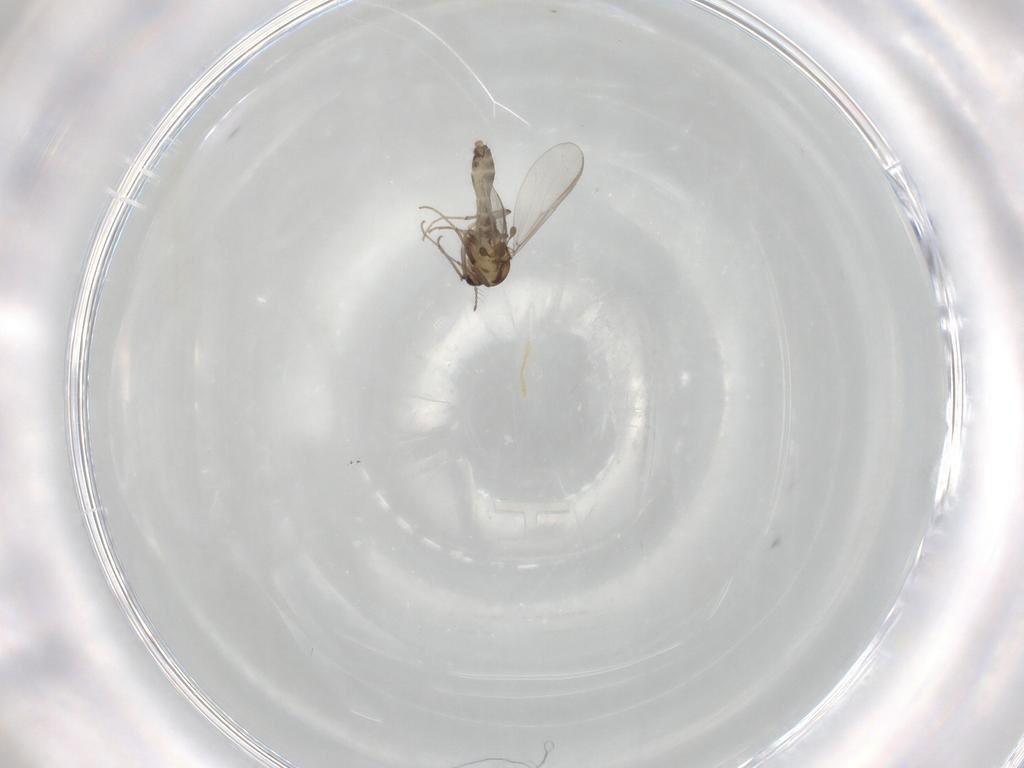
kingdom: Animalia
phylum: Arthropoda
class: Insecta
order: Diptera
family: Chironomidae
